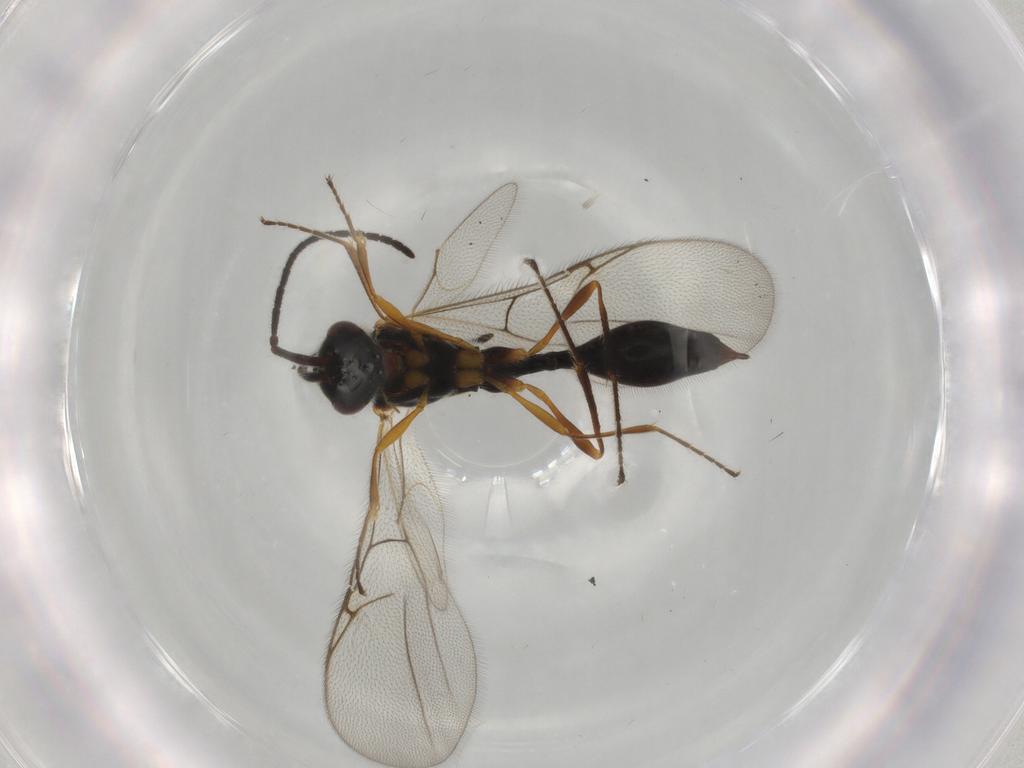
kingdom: Animalia
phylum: Arthropoda
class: Insecta
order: Hymenoptera
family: Diapriidae
